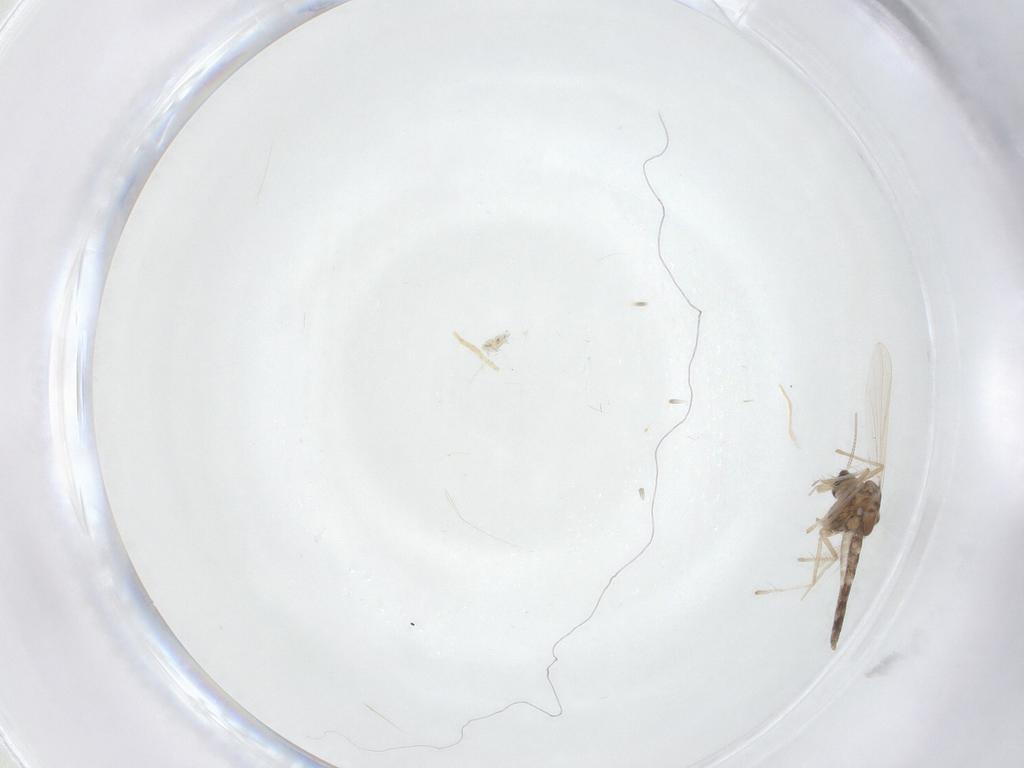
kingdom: Animalia
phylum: Arthropoda
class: Insecta
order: Diptera
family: Chironomidae
